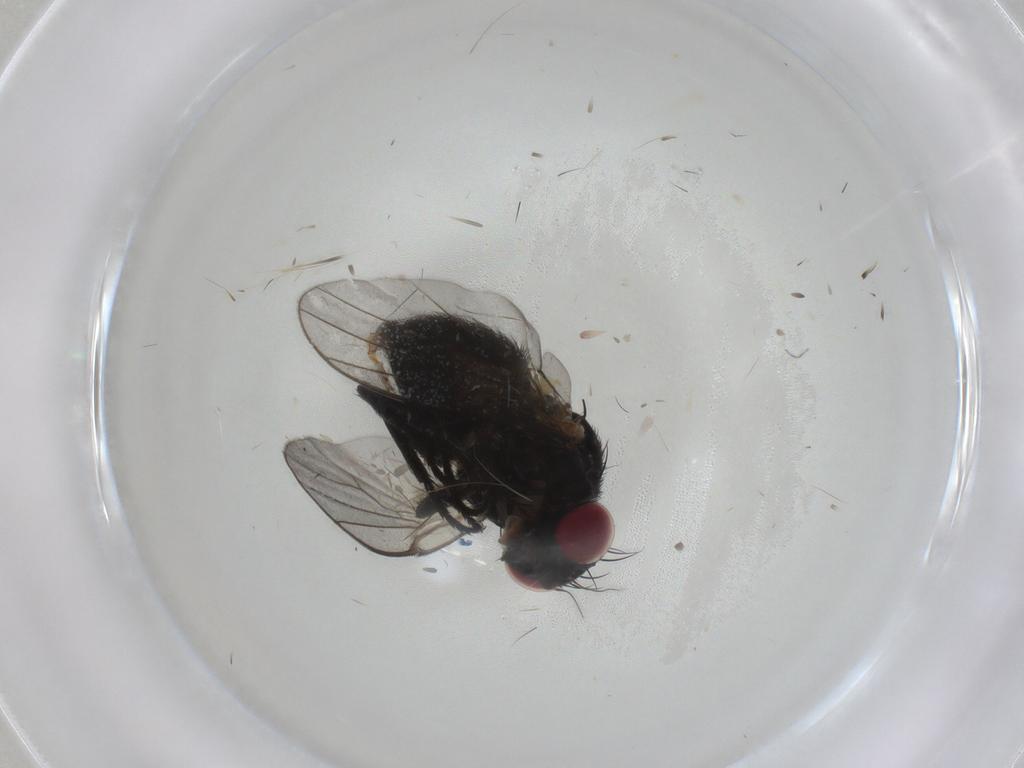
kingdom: Animalia
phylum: Arthropoda
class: Insecta
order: Diptera
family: Agromyzidae
